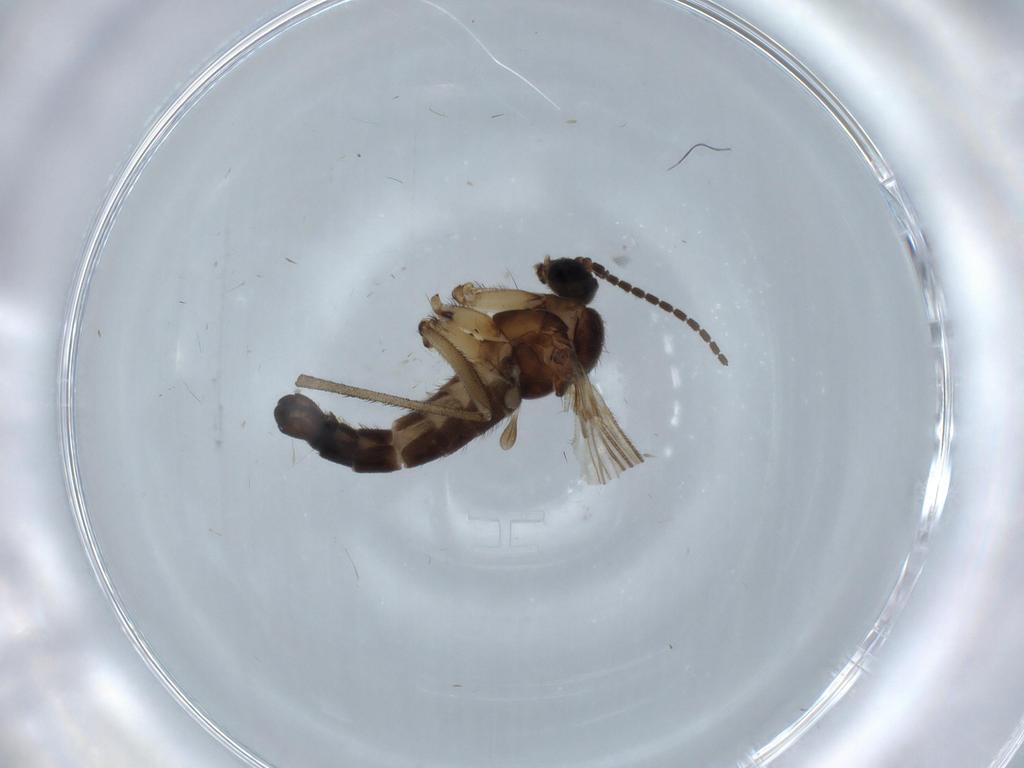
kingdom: Animalia
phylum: Arthropoda
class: Insecta
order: Diptera
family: Sciaridae
